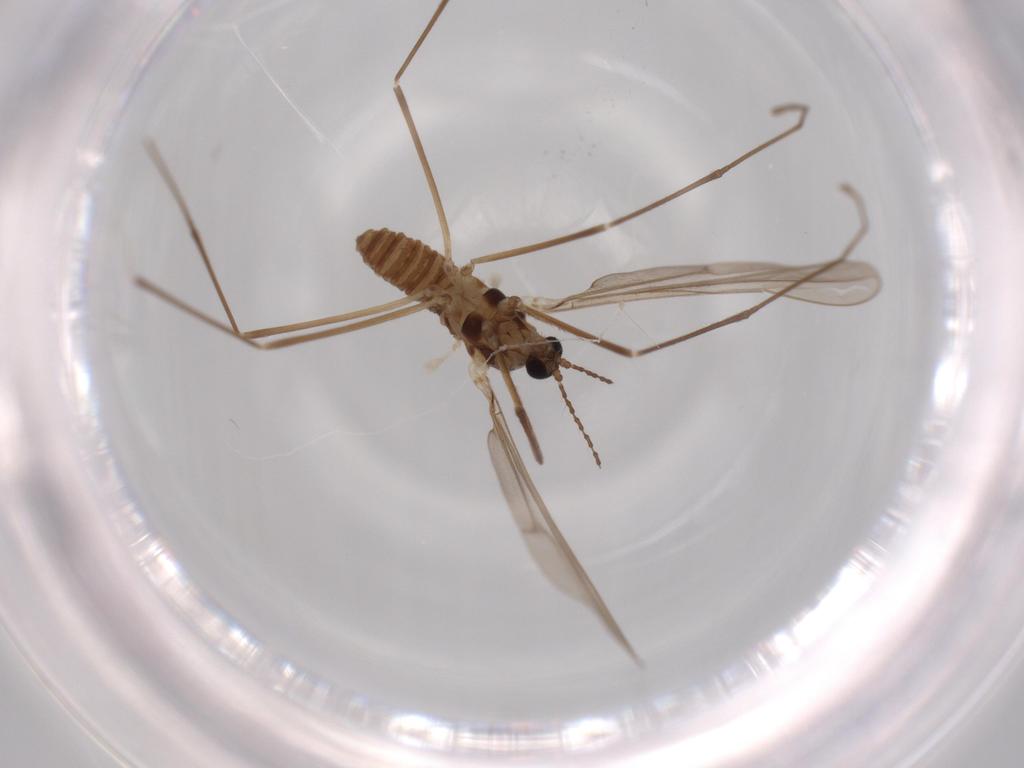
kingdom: Animalia
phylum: Arthropoda
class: Insecta
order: Diptera
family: Cecidomyiidae
